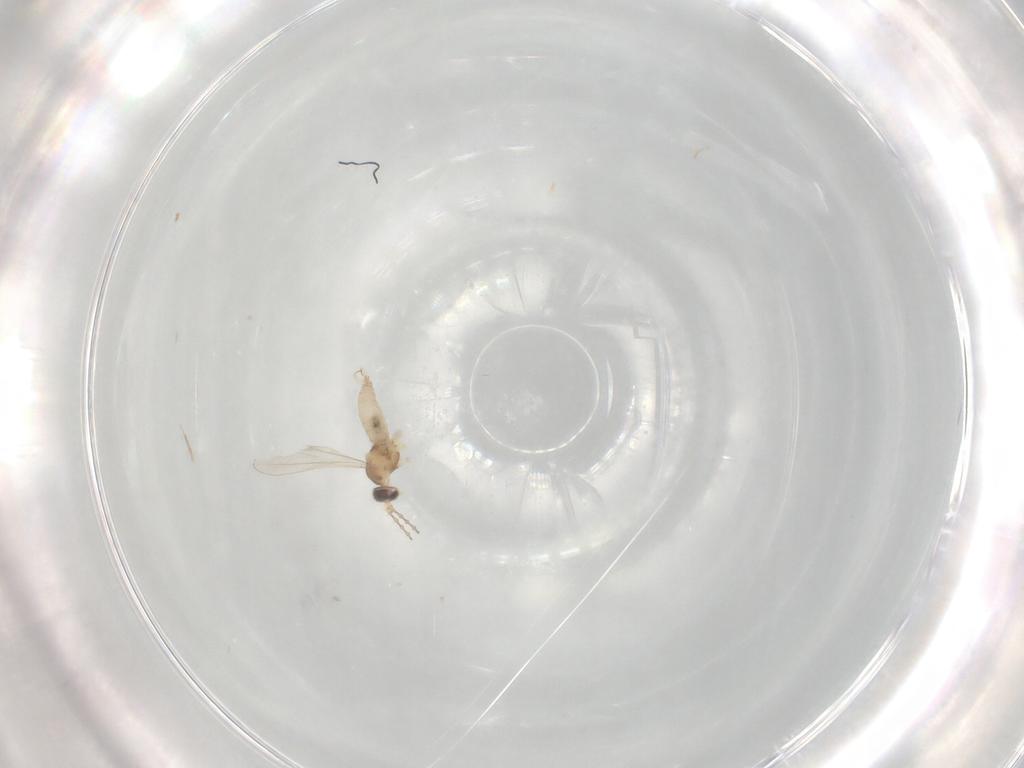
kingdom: Animalia
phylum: Arthropoda
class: Insecta
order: Diptera
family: Cecidomyiidae
